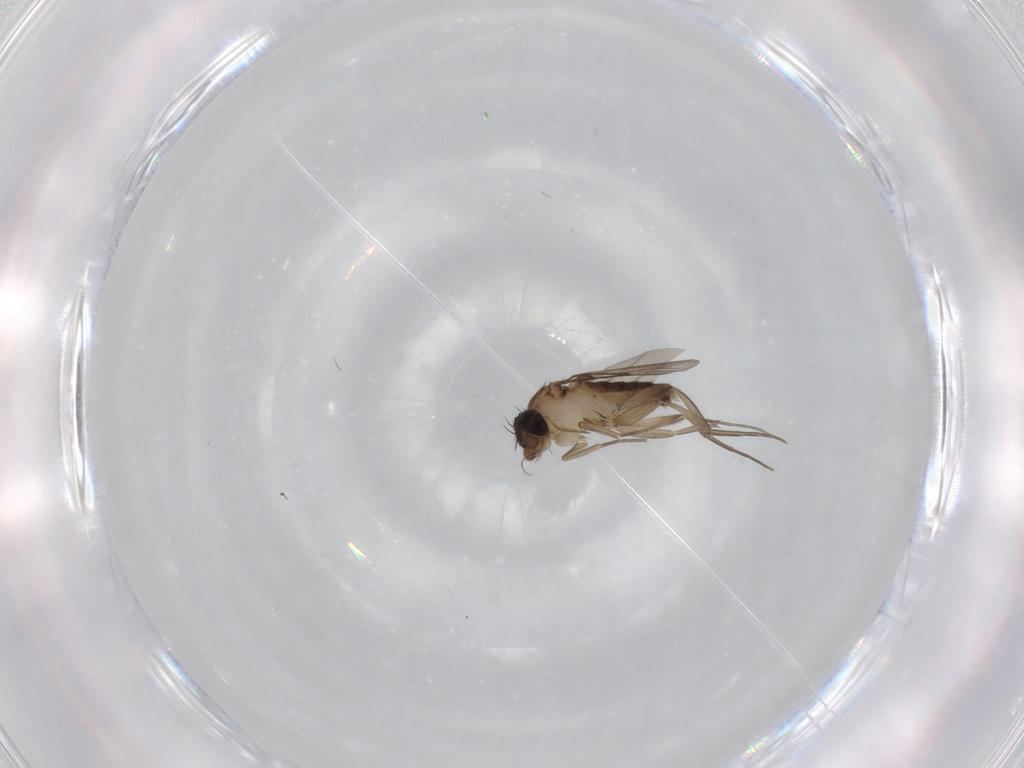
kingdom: Animalia
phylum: Arthropoda
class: Insecta
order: Diptera
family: Phoridae
